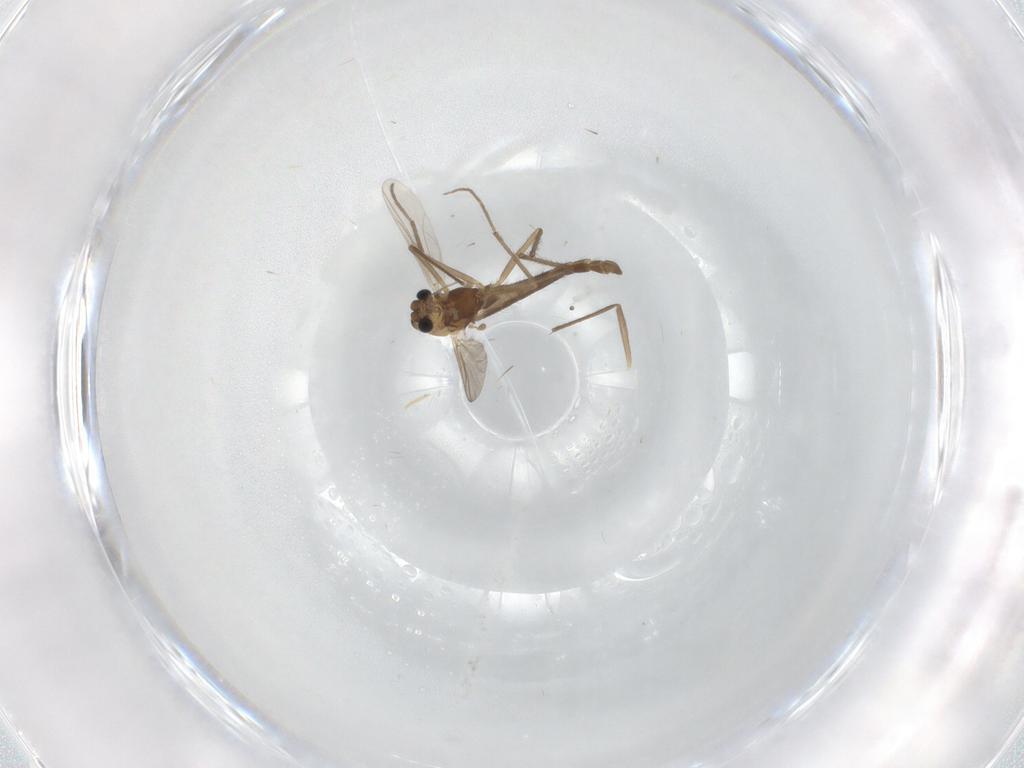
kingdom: Animalia
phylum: Arthropoda
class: Insecta
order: Diptera
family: Chironomidae
